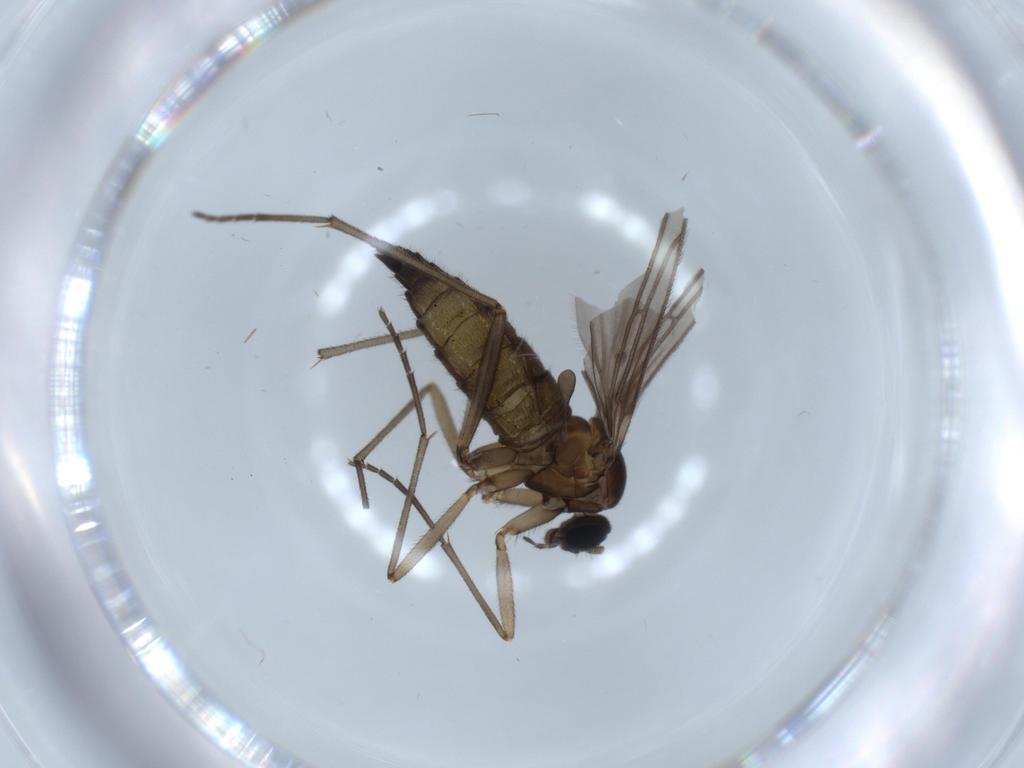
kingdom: Animalia
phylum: Arthropoda
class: Insecta
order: Diptera
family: Sciaridae
